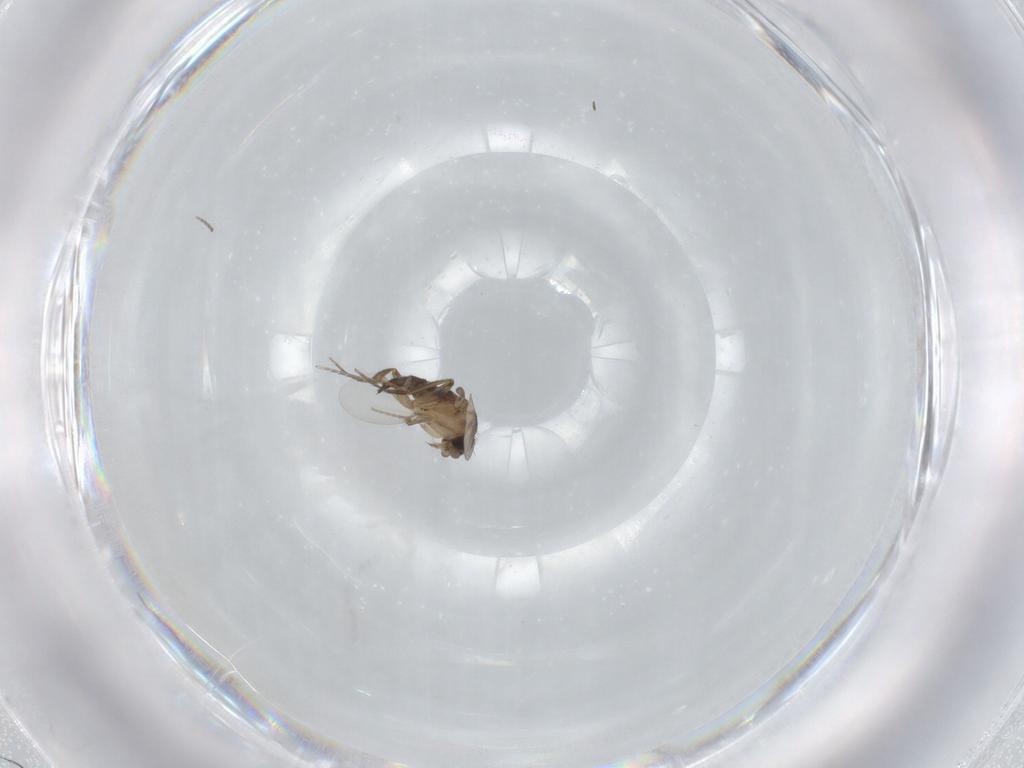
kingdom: Animalia
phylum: Arthropoda
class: Insecta
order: Diptera
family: Phoridae
